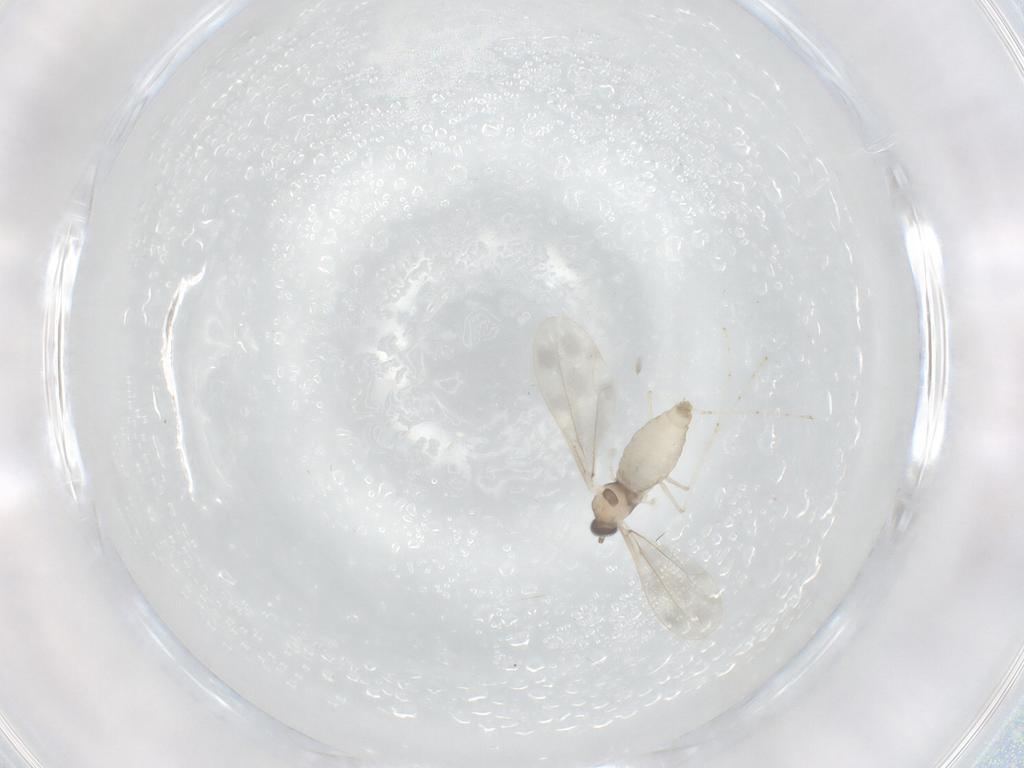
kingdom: Animalia
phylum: Arthropoda
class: Insecta
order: Diptera
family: Cecidomyiidae
